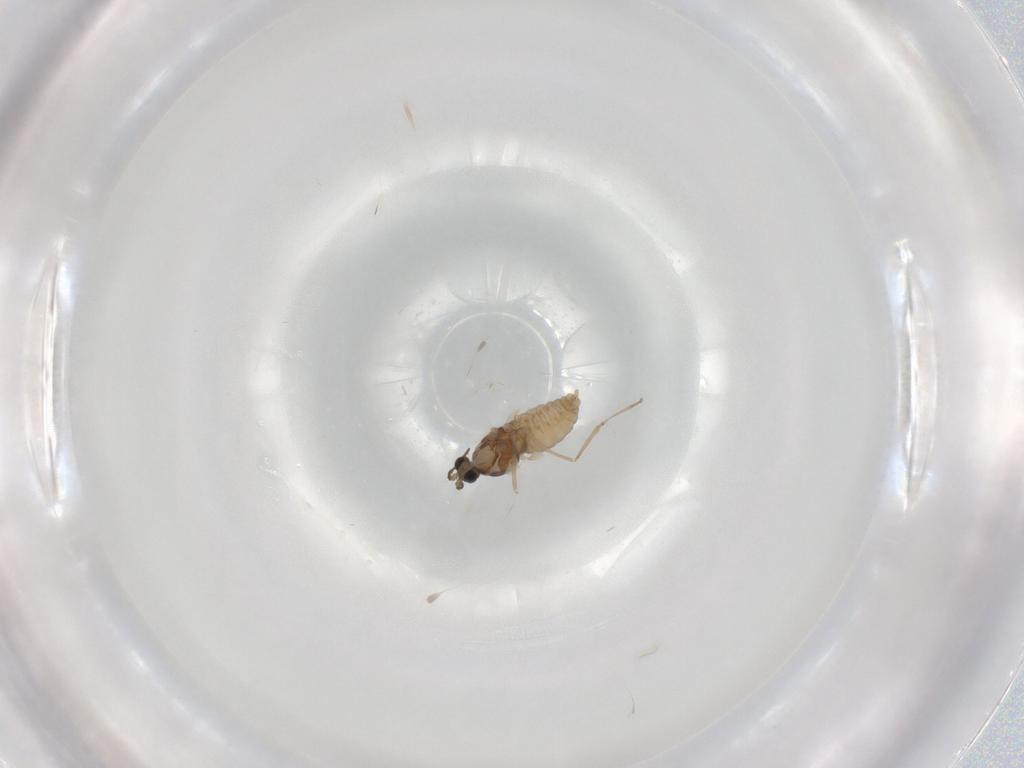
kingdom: Animalia
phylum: Arthropoda
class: Insecta
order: Diptera
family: Cecidomyiidae
